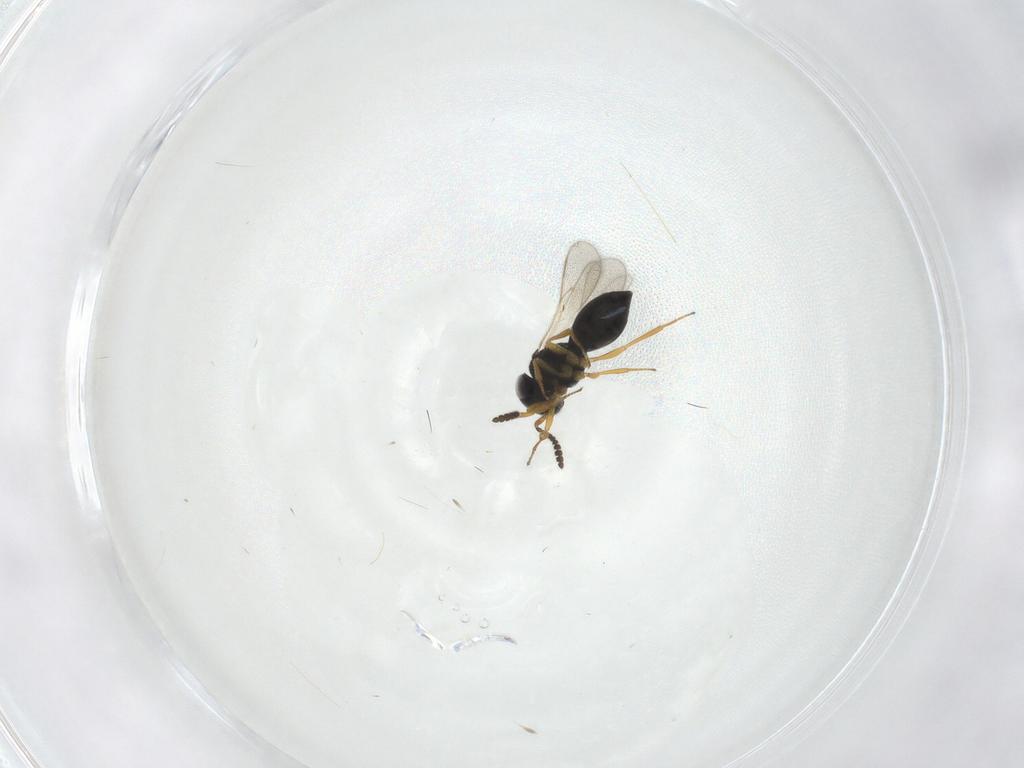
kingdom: Animalia
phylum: Arthropoda
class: Insecta
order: Hymenoptera
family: Scelionidae
